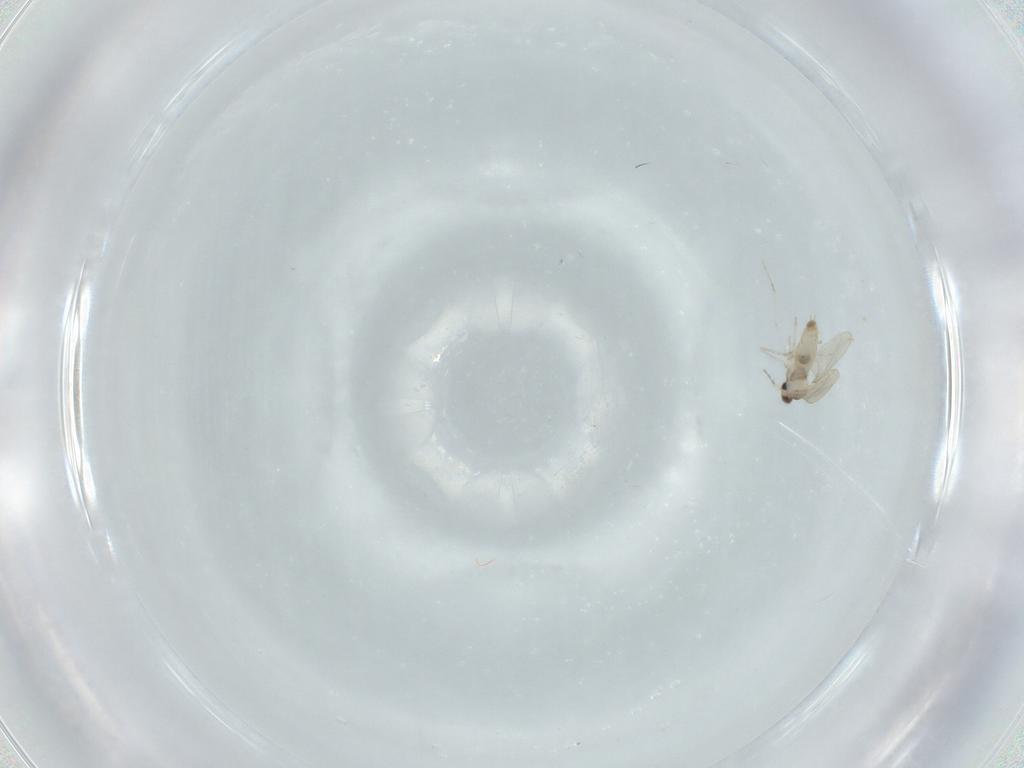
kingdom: Animalia
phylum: Arthropoda
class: Insecta
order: Diptera
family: Cecidomyiidae
